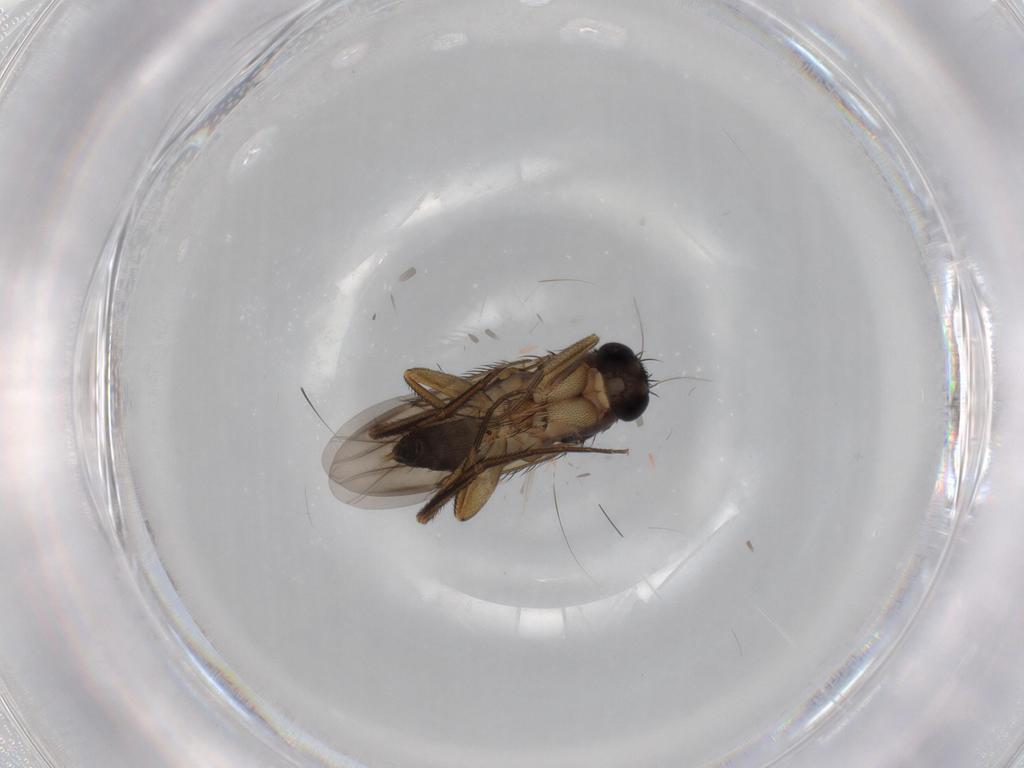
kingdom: Animalia
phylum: Arthropoda
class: Insecta
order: Diptera
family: Phoridae
